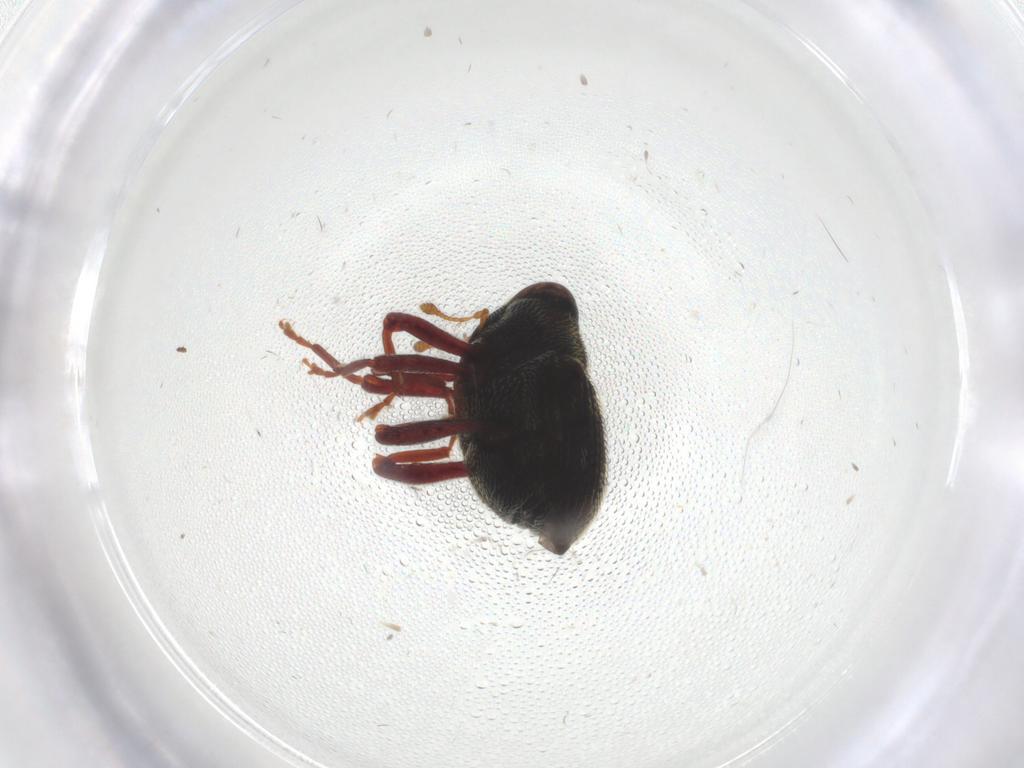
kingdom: Animalia
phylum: Arthropoda
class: Insecta
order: Coleoptera
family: Curculionidae
